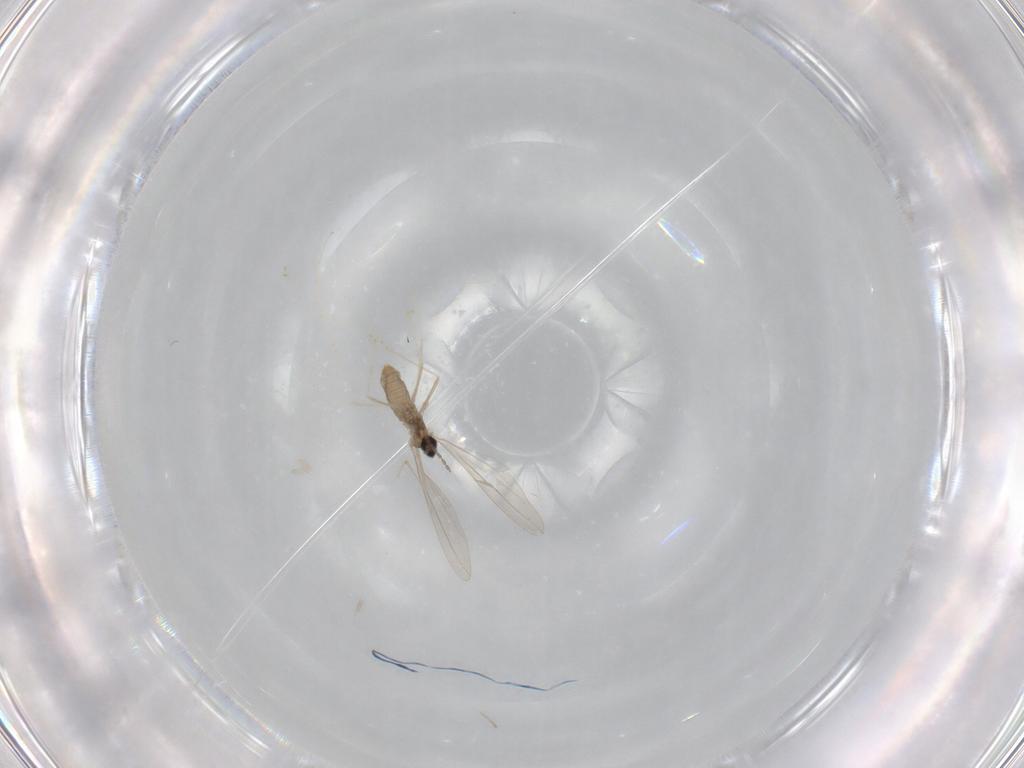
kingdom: Animalia
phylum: Arthropoda
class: Insecta
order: Diptera
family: Cecidomyiidae
